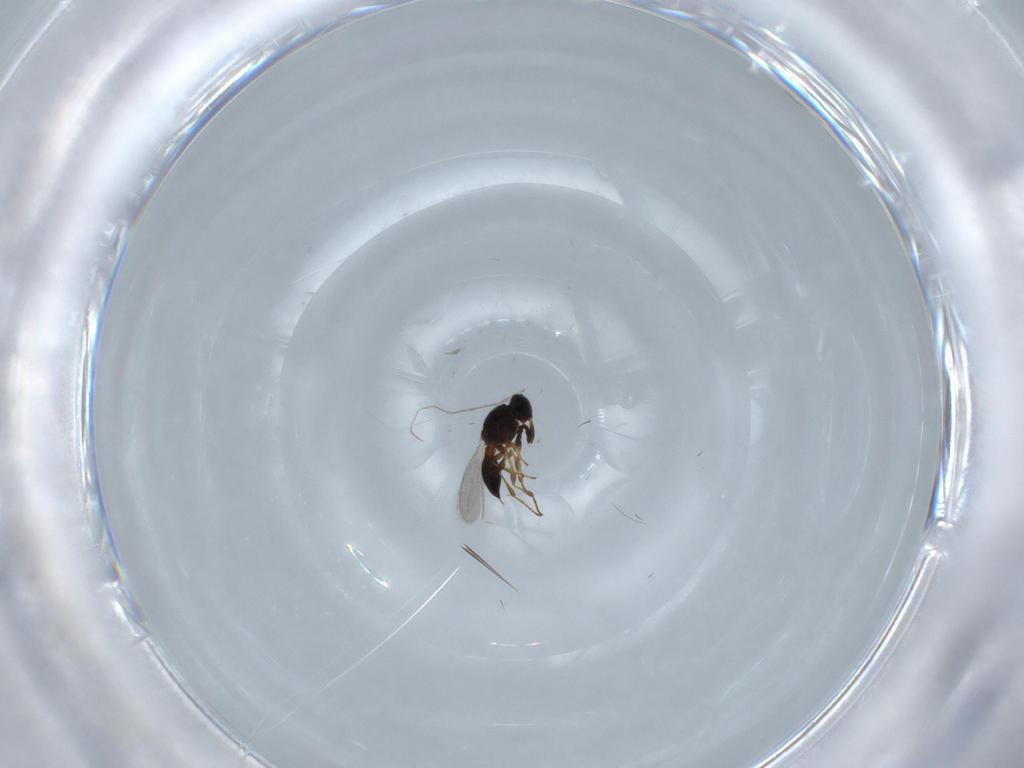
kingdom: Animalia
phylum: Arthropoda
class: Insecta
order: Hymenoptera
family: Platygastridae
